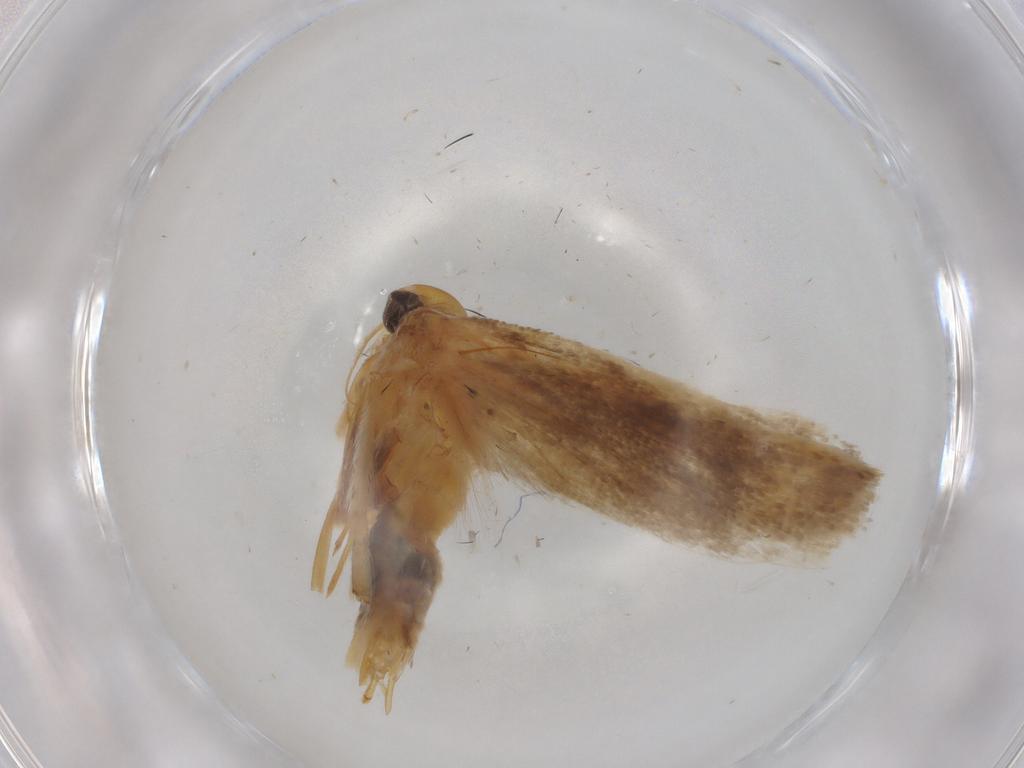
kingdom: Animalia
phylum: Arthropoda
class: Insecta
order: Lepidoptera
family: Gelechiidae
